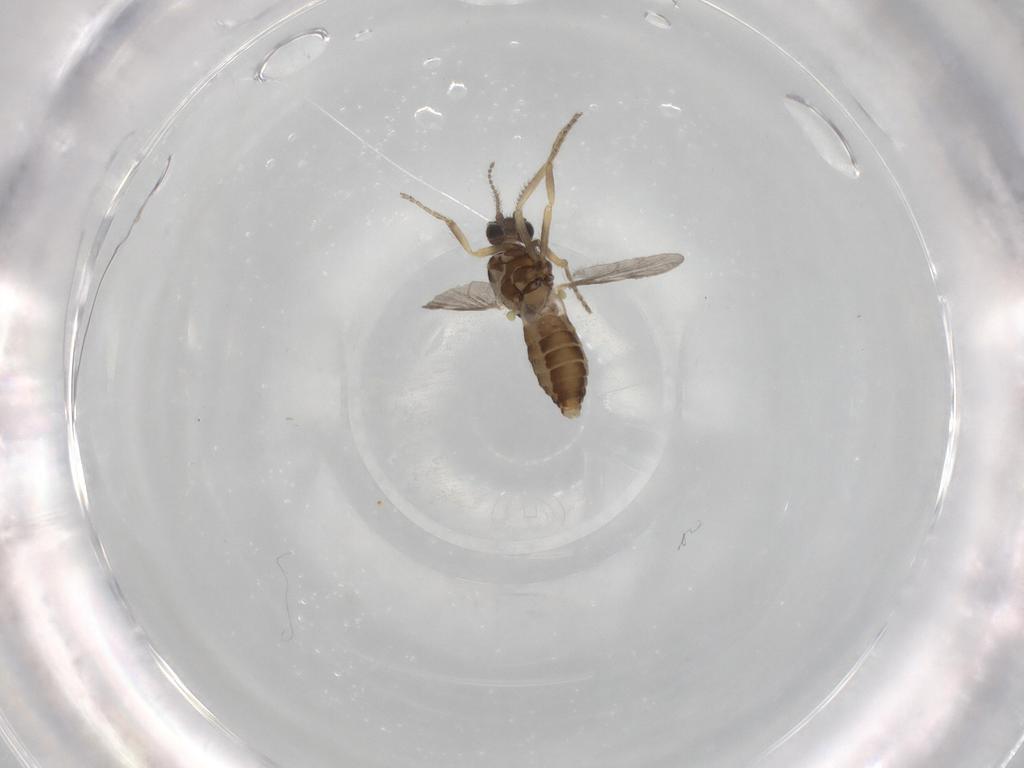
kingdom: Animalia
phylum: Arthropoda
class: Insecta
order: Diptera
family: Ceratopogonidae
